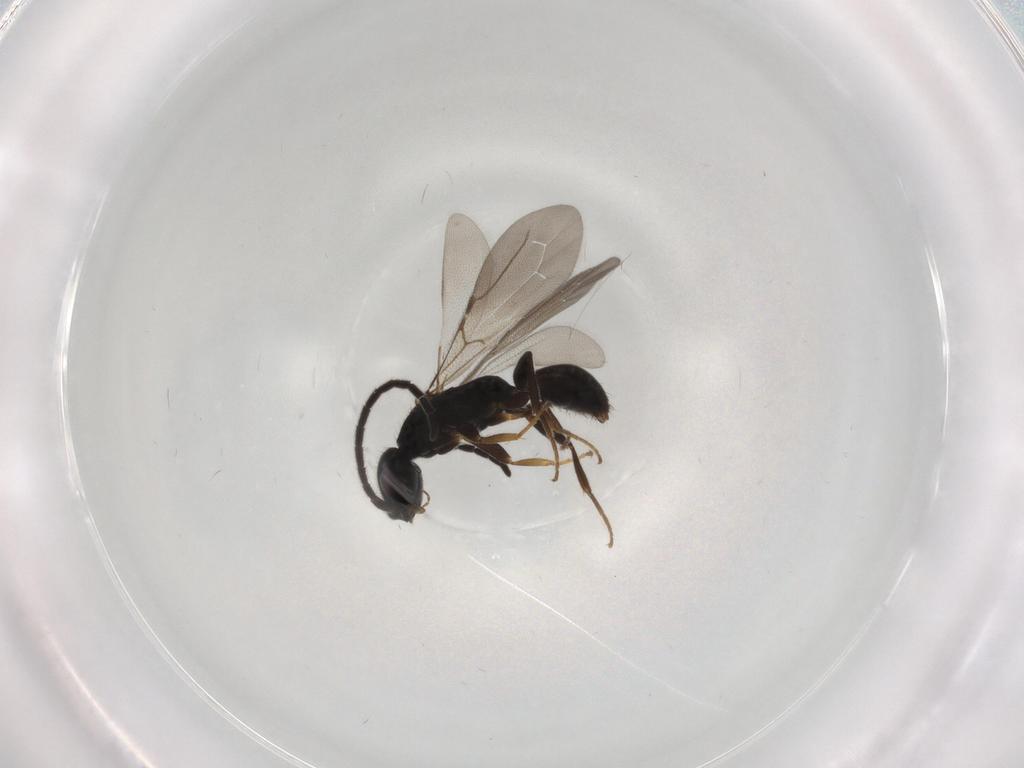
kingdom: Animalia
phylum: Arthropoda
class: Insecta
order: Hymenoptera
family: Bethylidae
